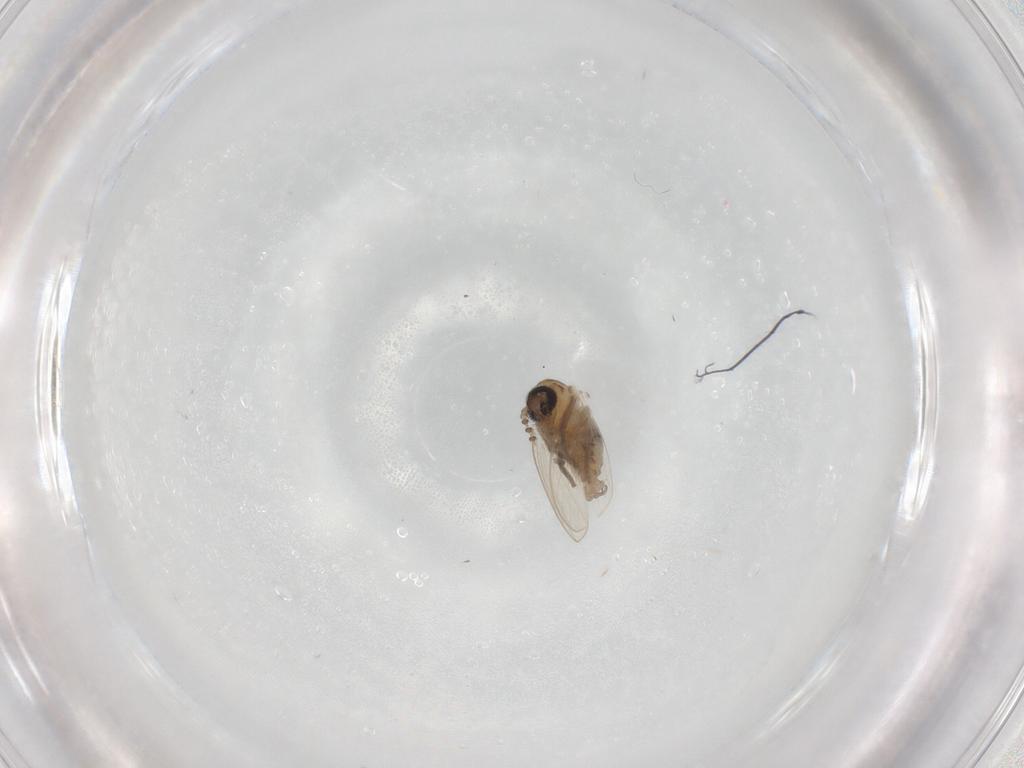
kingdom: Animalia
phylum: Arthropoda
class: Insecta
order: Diptera
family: Psychodidae
